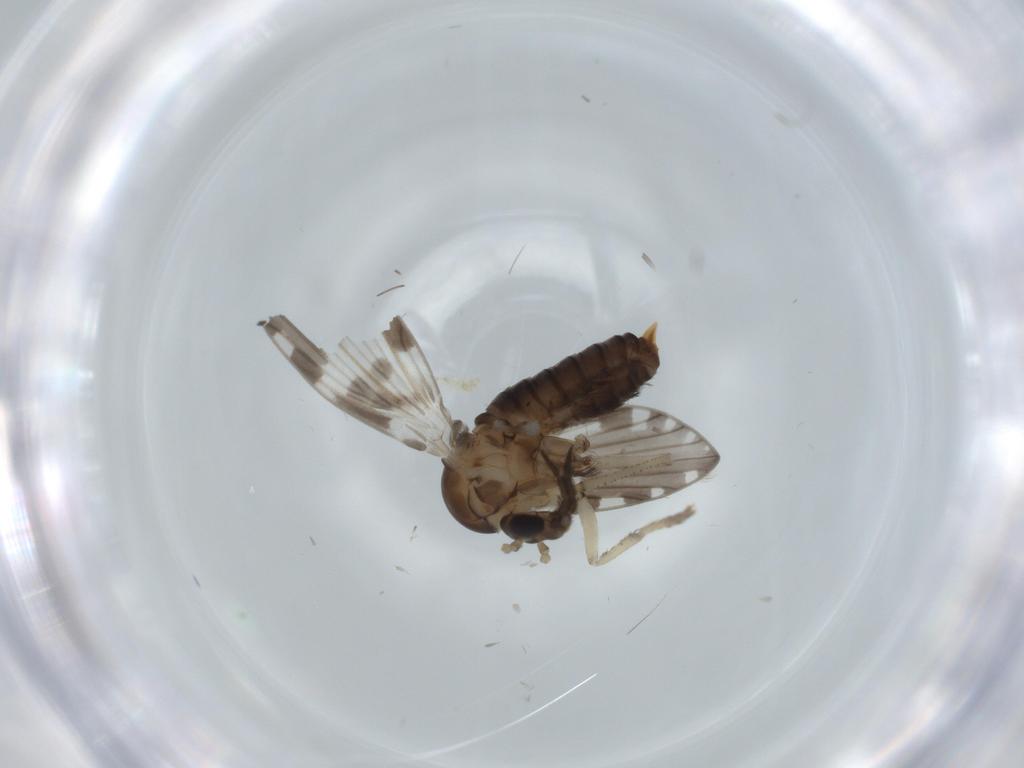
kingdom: Animalia
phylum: Arthropoda
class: Insecta
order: Diptera
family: Psychodidae
